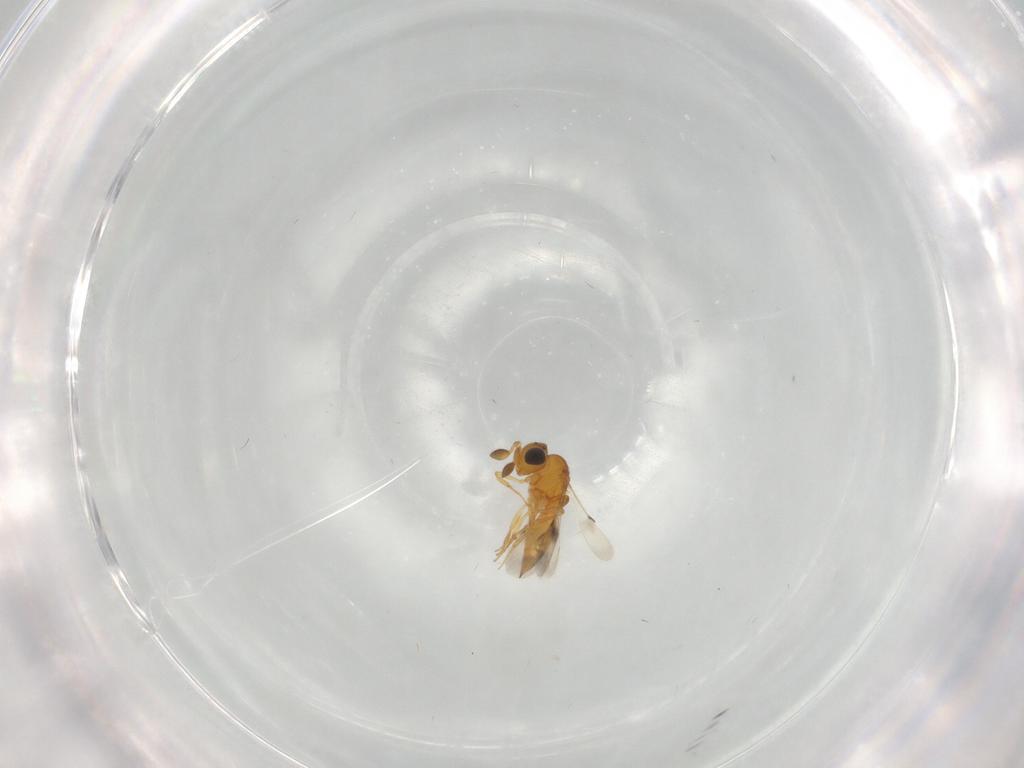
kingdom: Animalia
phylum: Arthropoda
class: Insecta
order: Hymenoptera
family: Scelionidae
